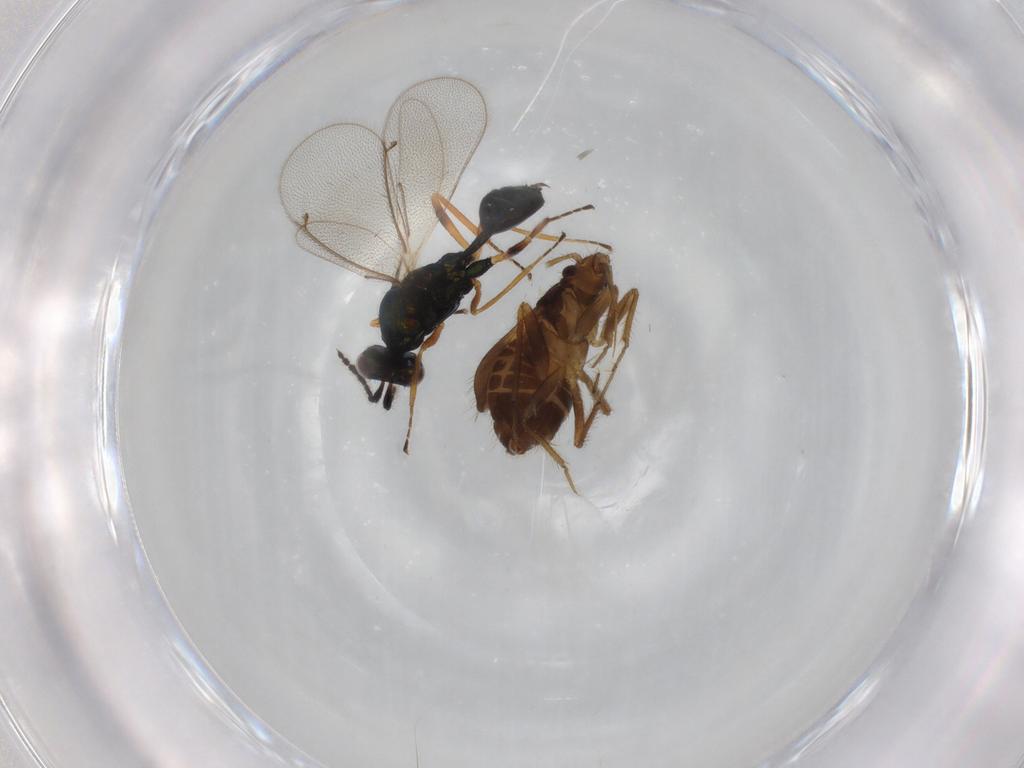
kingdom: Animalia
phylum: Arthropoda
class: Insecta
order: Hymenoptera
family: Eulophidae
